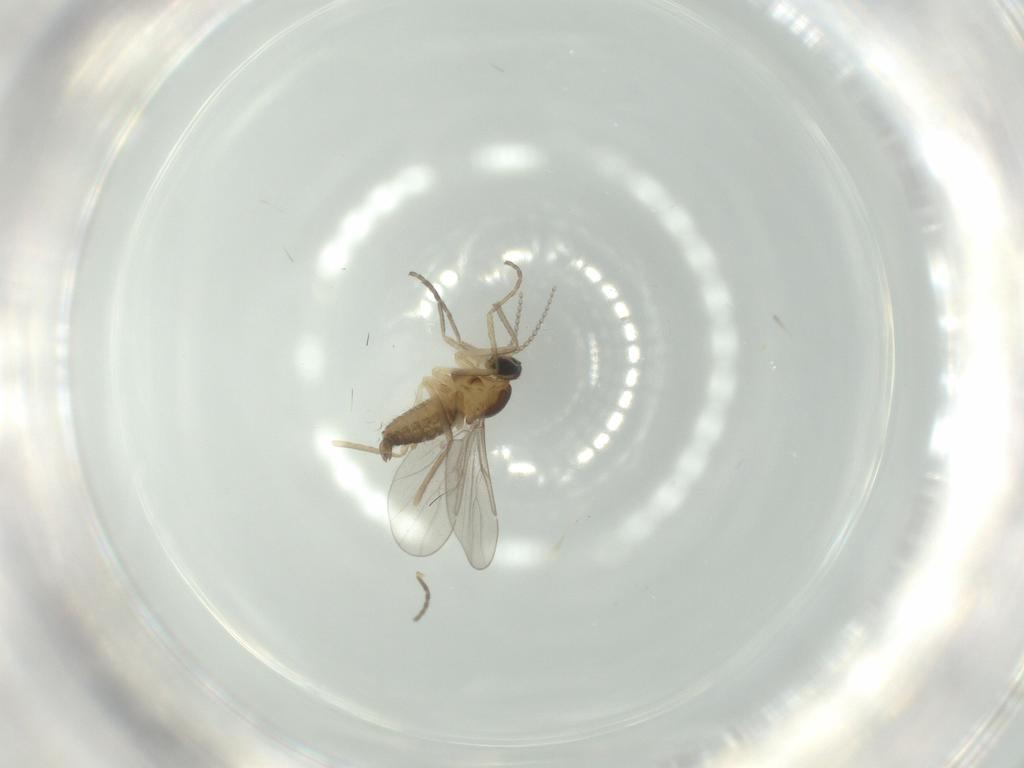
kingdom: Animalia
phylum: Arthropoda
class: Insecta
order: Diptera
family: Cecidomyiidae
